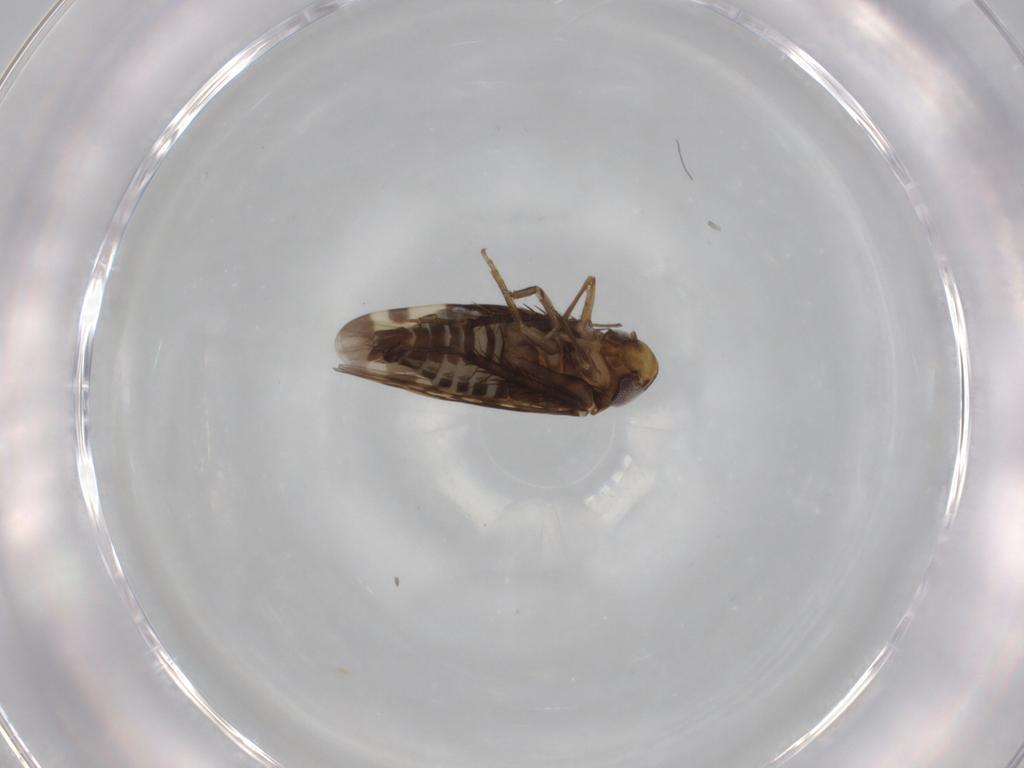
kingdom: Animalia
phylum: Arthropoda
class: Insecta
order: Hemiptera
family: Cicadellidae
